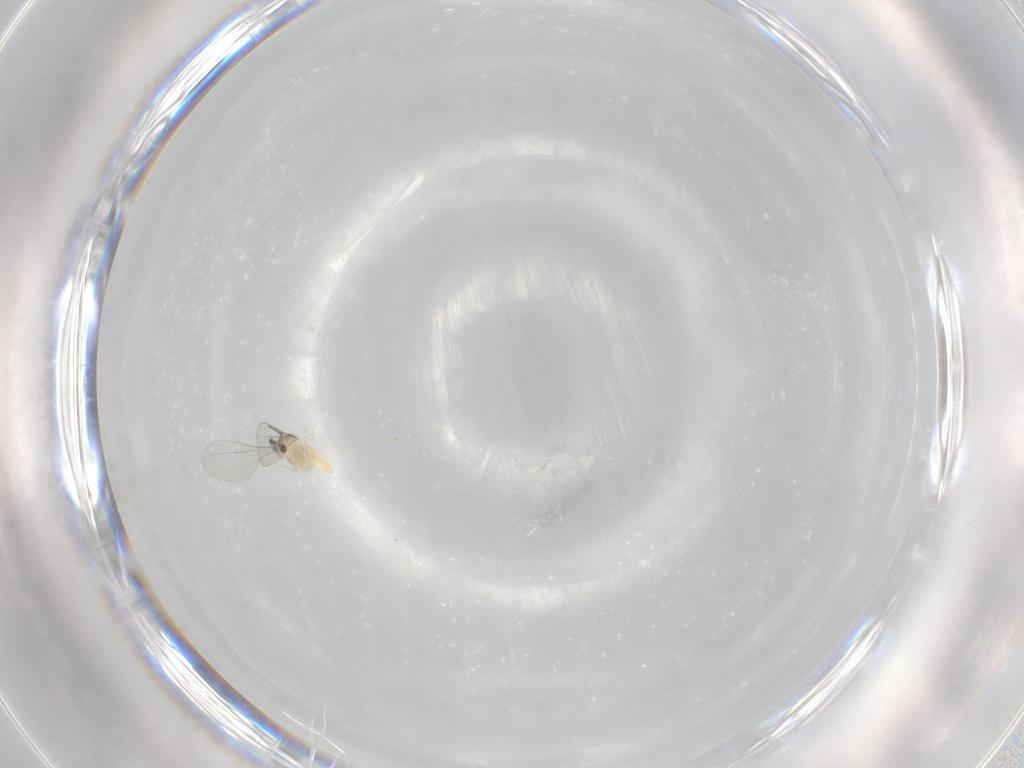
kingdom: Animalia
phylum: Arthropoda
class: Insecta
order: Diptera
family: Cecidomyiidae
